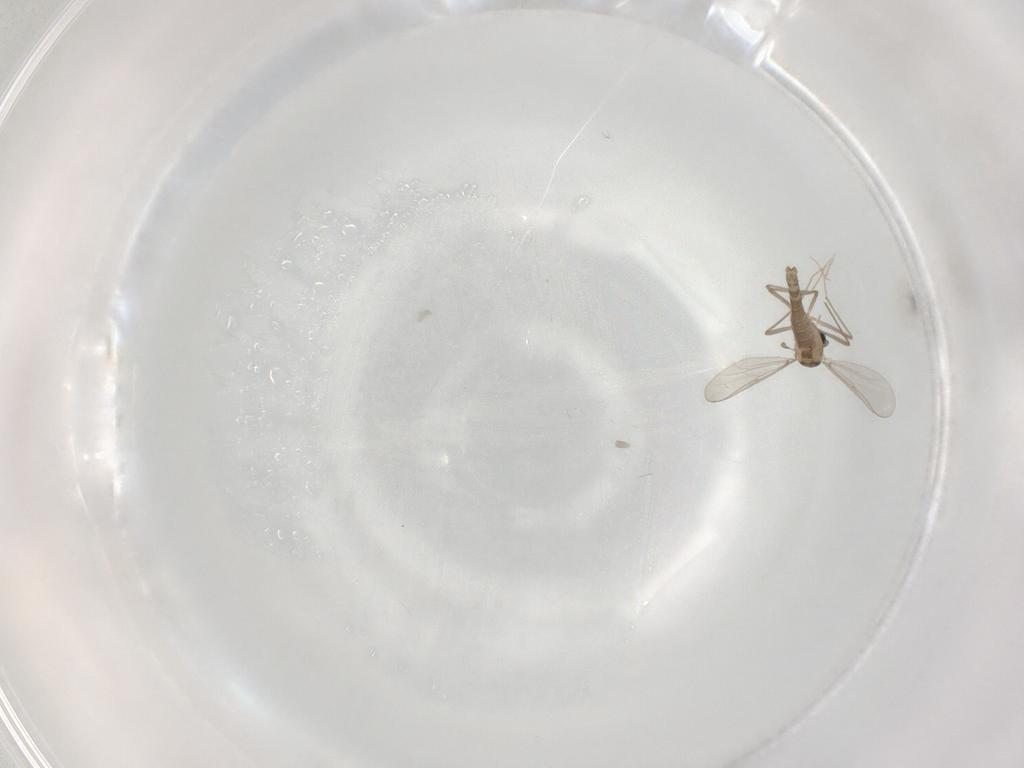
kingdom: Animalia
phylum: Arthropoda
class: Insecta
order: Diptera
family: Chironomidae
